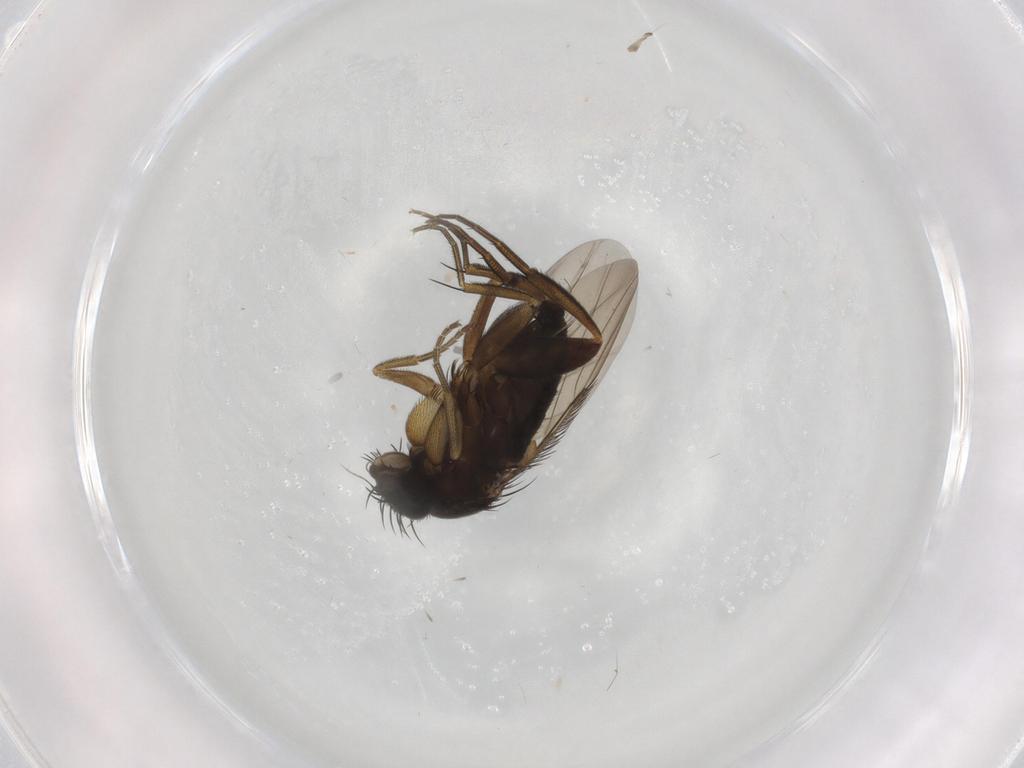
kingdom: Animalia
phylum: Arthropoda
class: Insecta
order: Diptera
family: Phoridae
